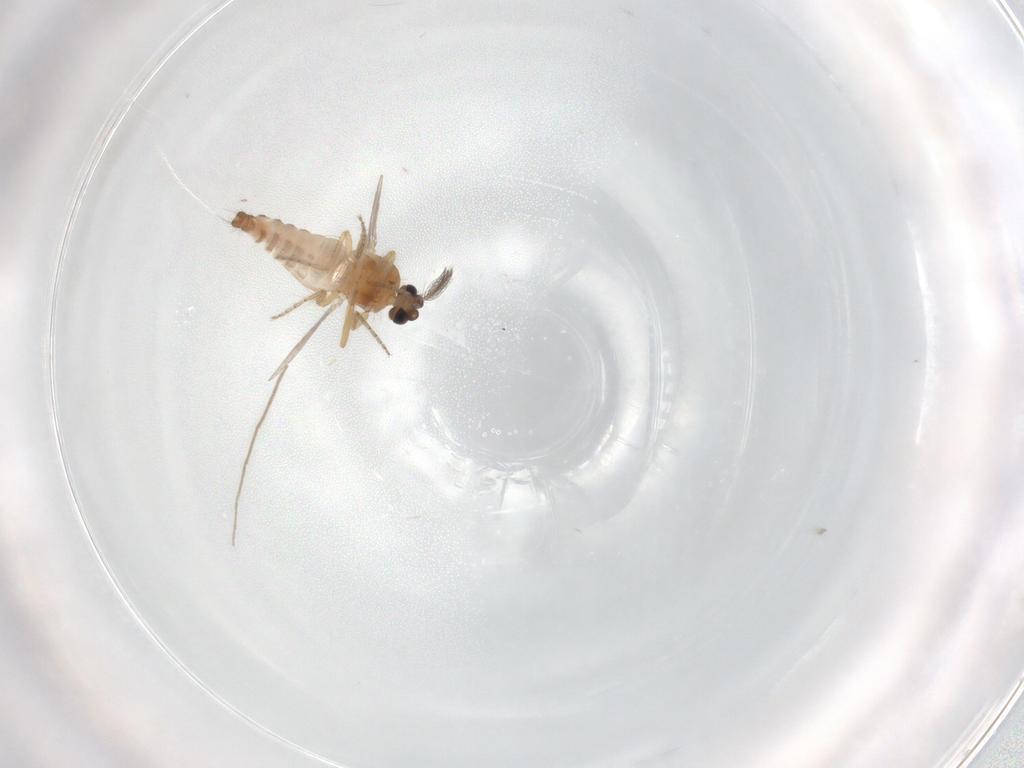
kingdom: Animalia
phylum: Arthropoda
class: Insecta
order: Diptera
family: Ceratopogonidae
